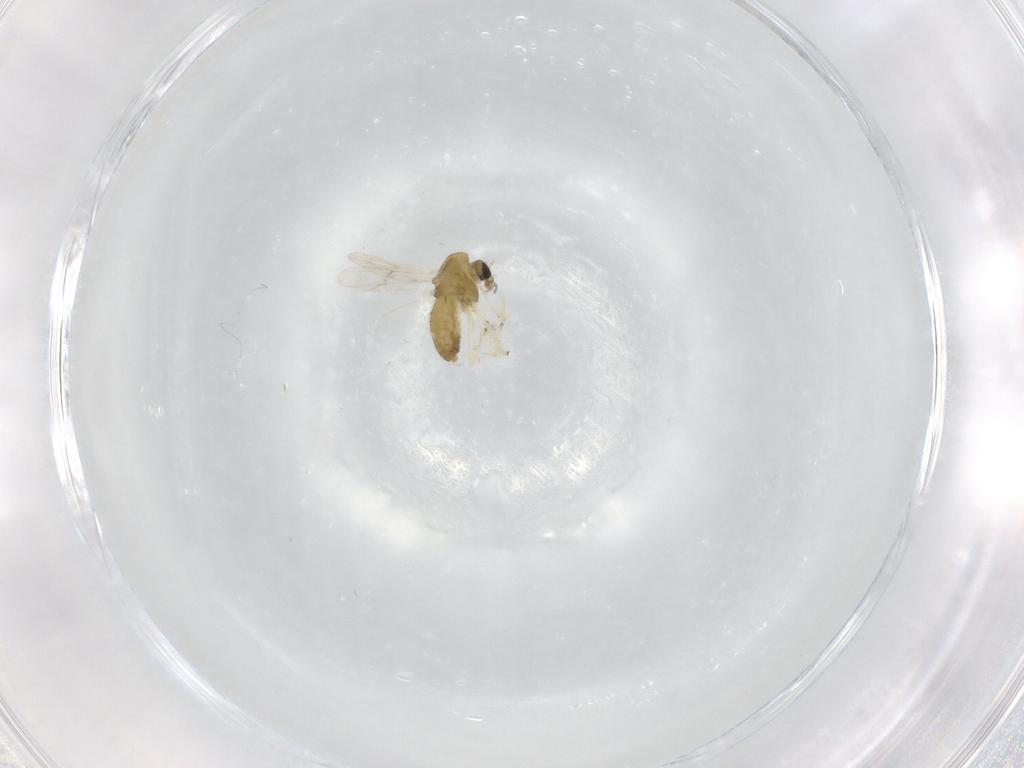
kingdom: Animalia
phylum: Arthropoda
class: Insecta
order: Diptera
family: Ceratopogonidae
